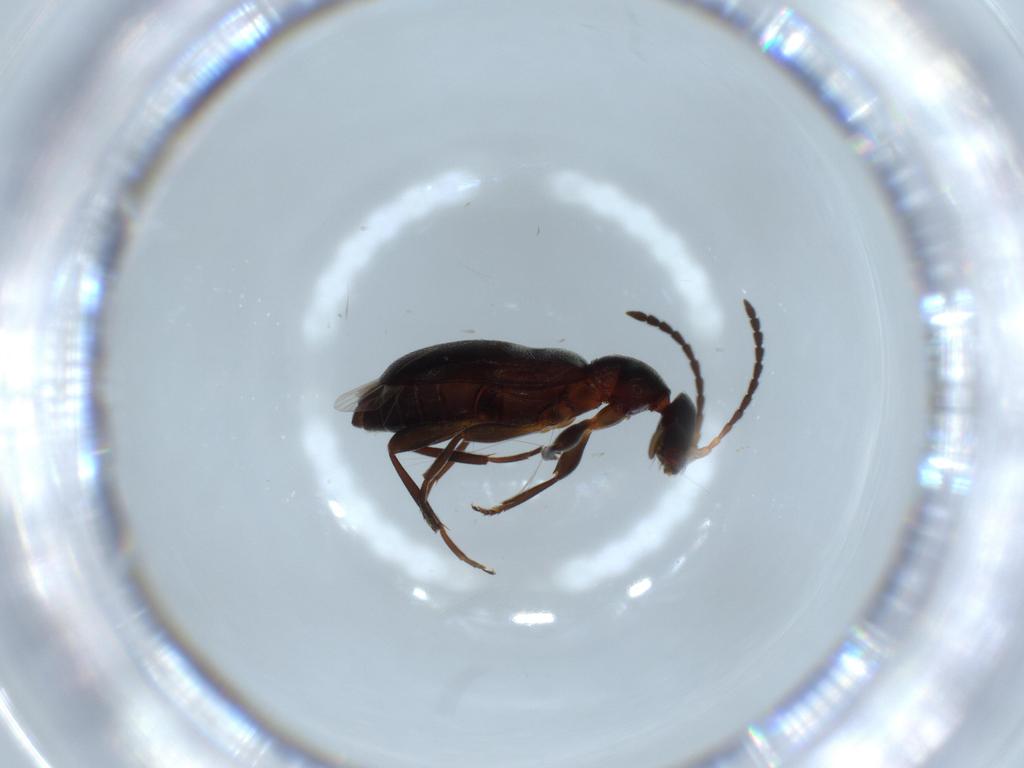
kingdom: Animalia
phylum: Arthropoda
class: Insecta
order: Coleoptera
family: Anthicidae
